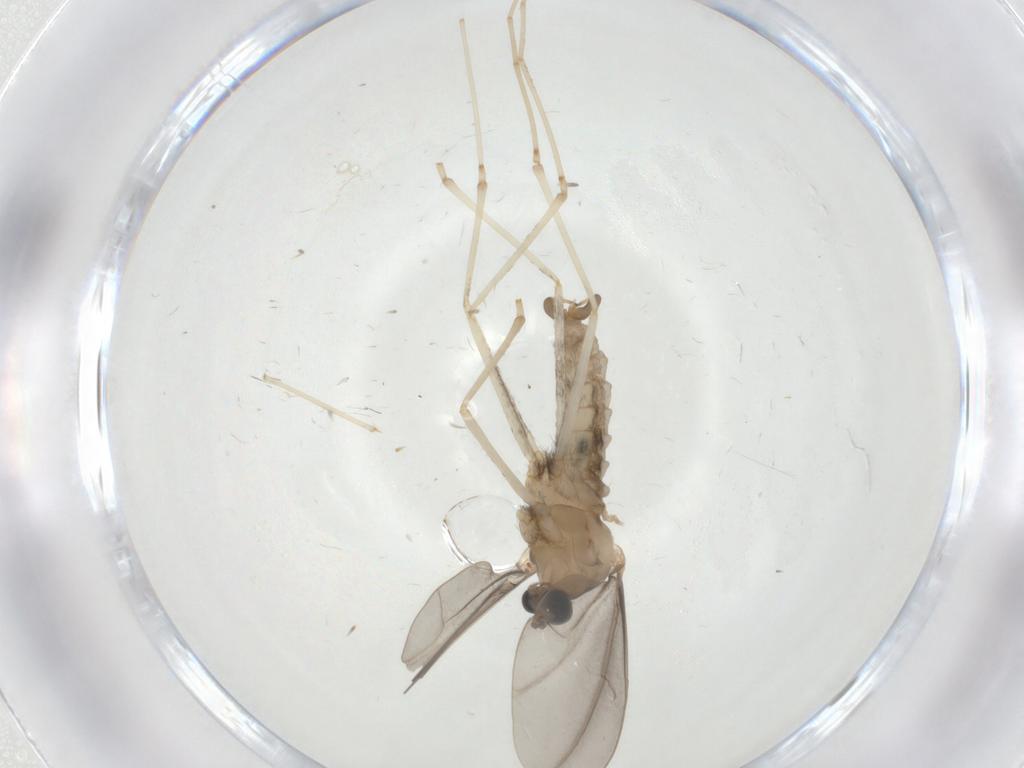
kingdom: Animalia
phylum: Arthropoda
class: Insecta
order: Diptera
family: Cecidomyiidae
